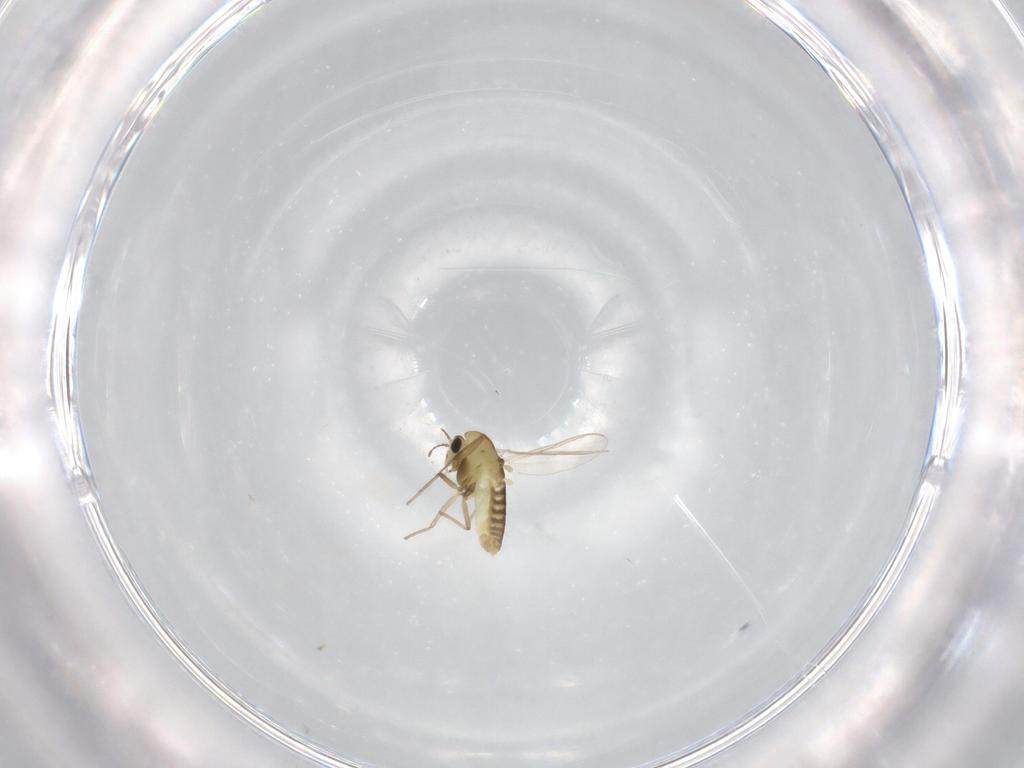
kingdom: Animalia
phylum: Arthropoda
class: Insecta
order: Diptera
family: Chironomidae
